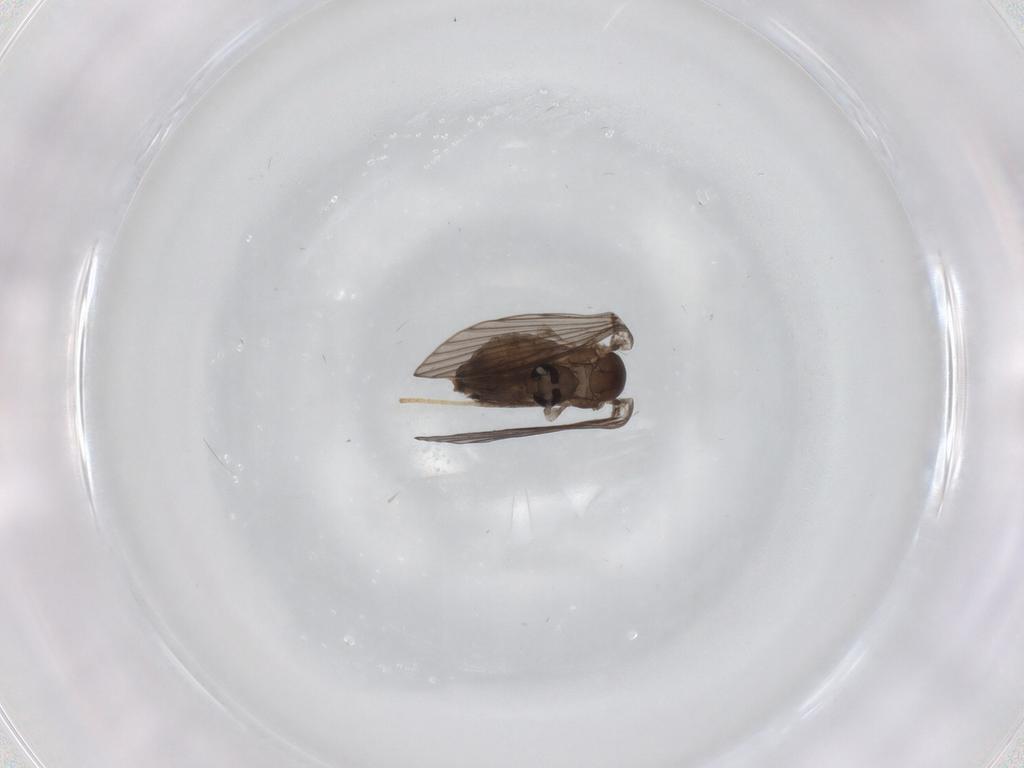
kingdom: Animalia
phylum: Arthropoda
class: Insecta
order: Diptera
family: Psychodidae
